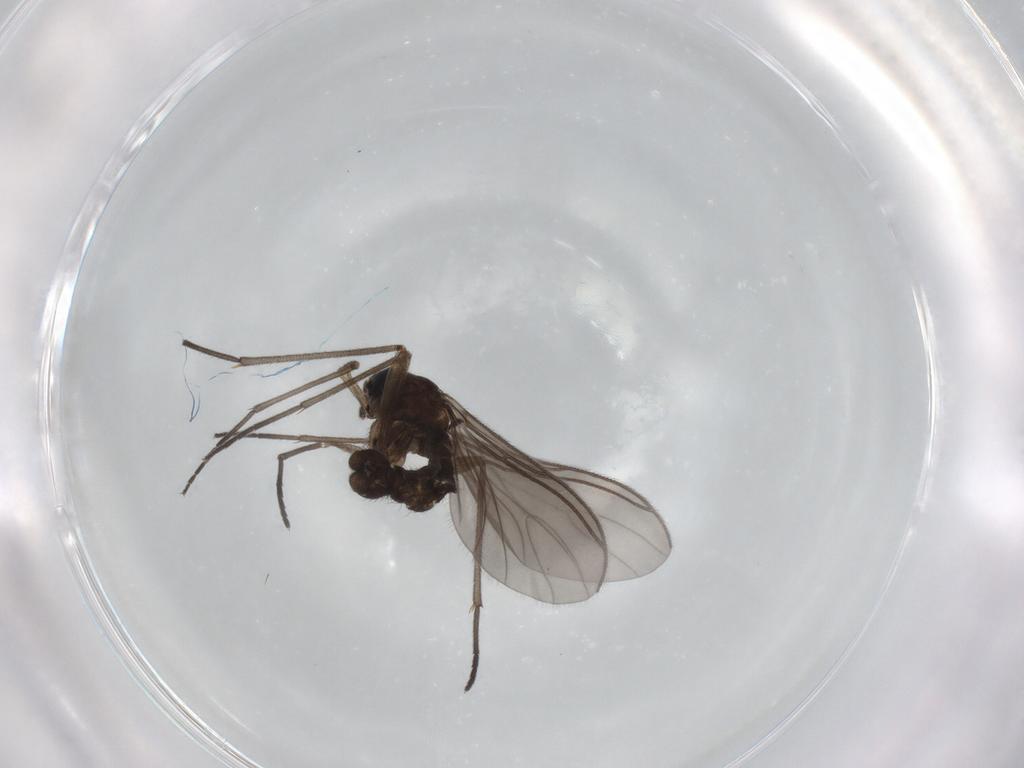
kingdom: Animalia
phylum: Arthropoda
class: Insecta
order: Diptera
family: Sciaridae
